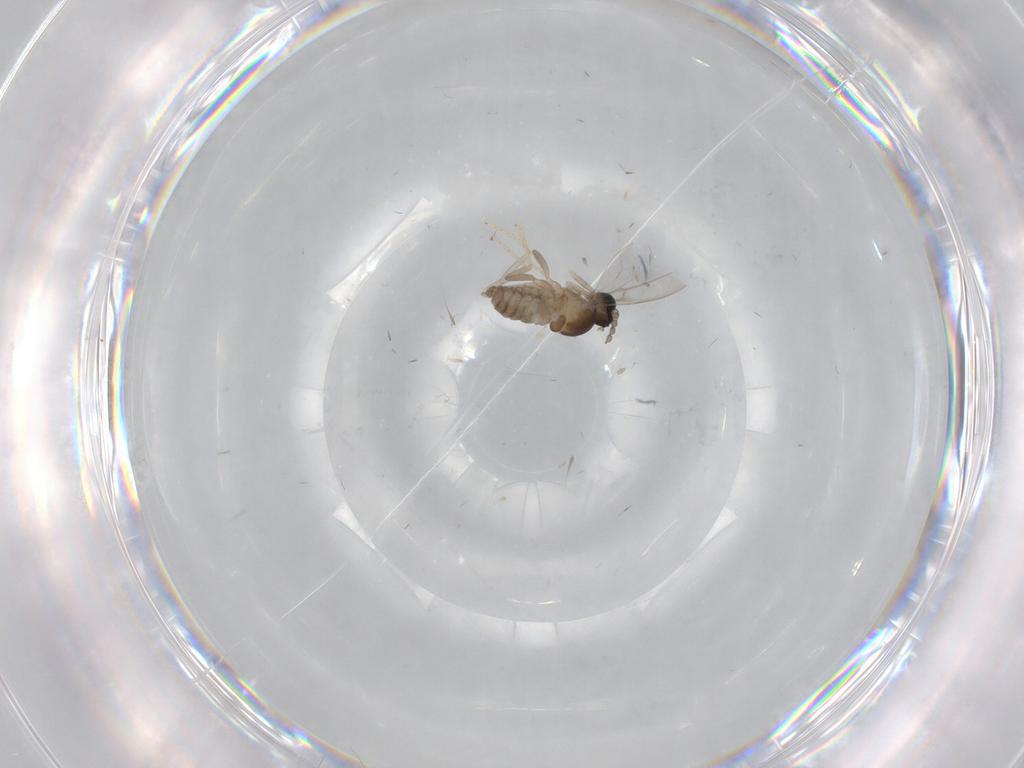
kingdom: Animalia
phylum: Arthropoda
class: Insecta
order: Diptera
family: Cecidomyiidae
